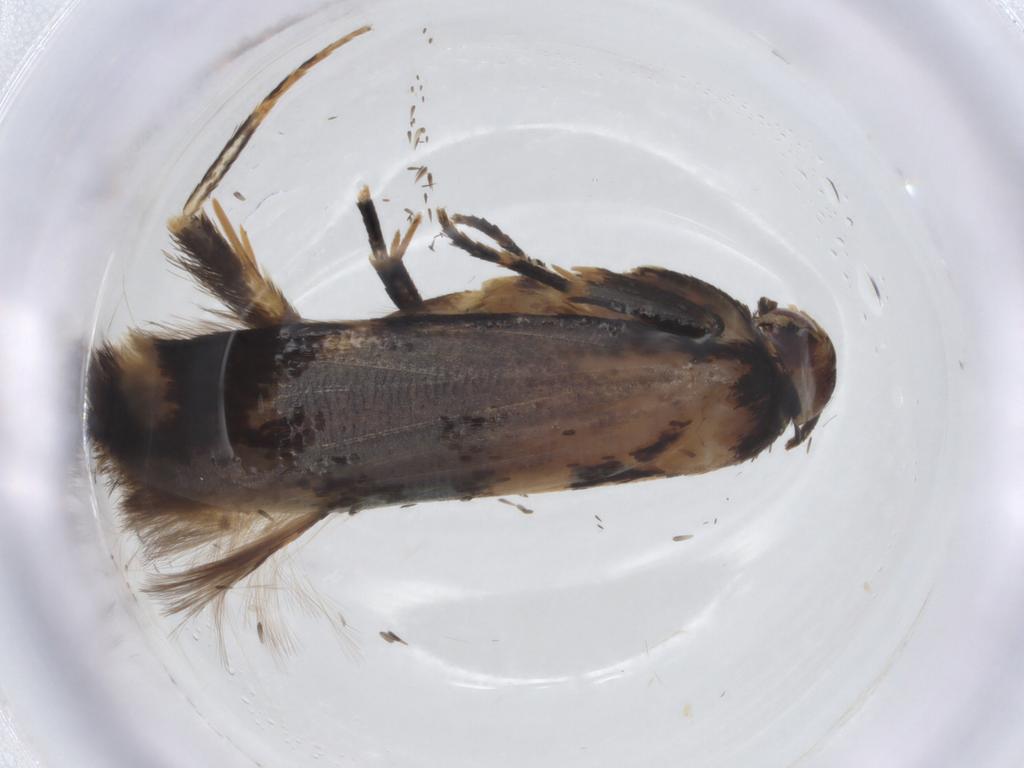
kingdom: Animalia
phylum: Arthropoda
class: Insecta
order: Lepidoptera
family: Cosmopterigidae
